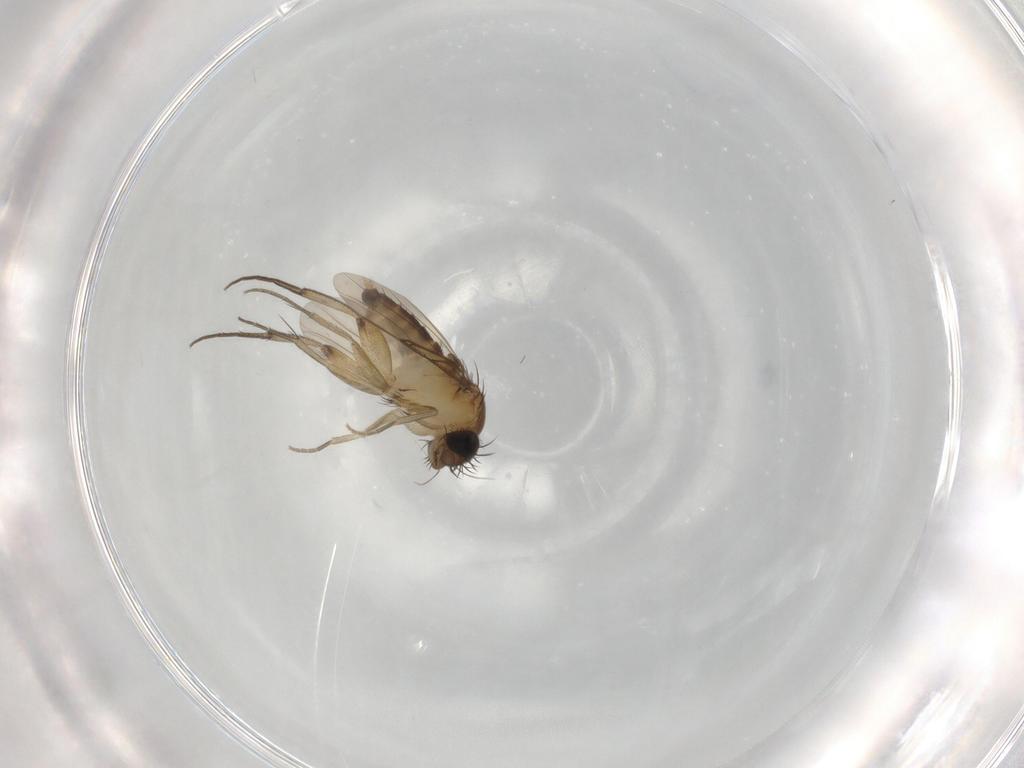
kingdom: Animalia
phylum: Arthropoda
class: Insecta
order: Diptera
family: Phoridae
